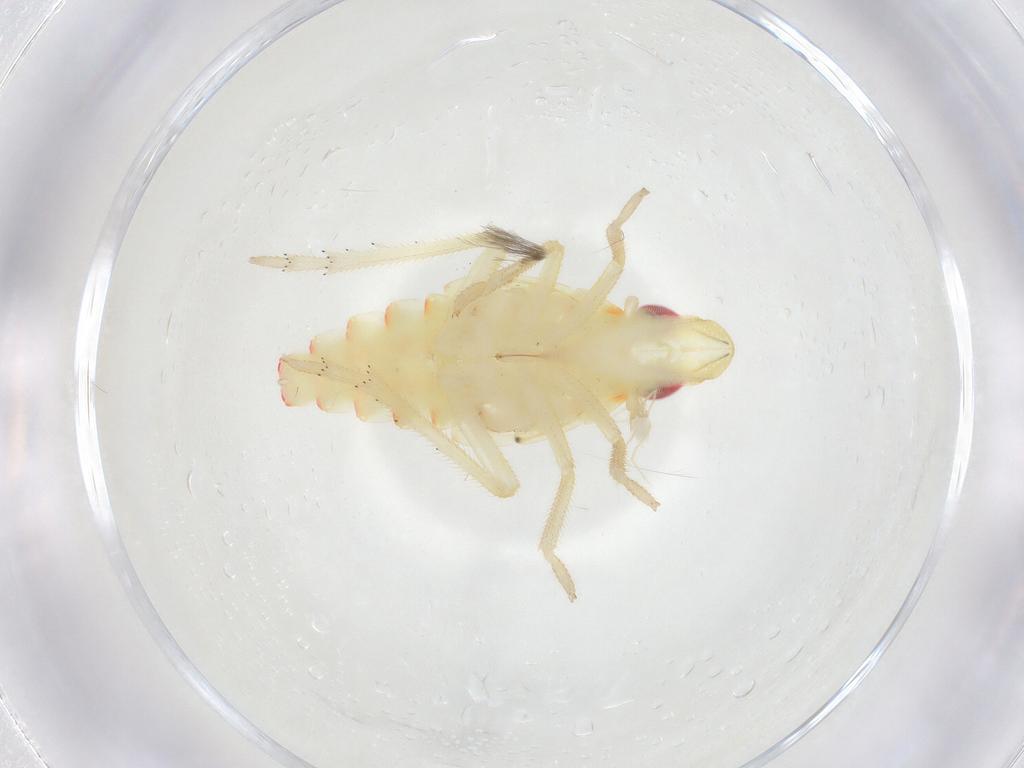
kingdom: Animalia
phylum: Arthropoda
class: Insecta
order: Hemiptera
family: Tropiduchidae
